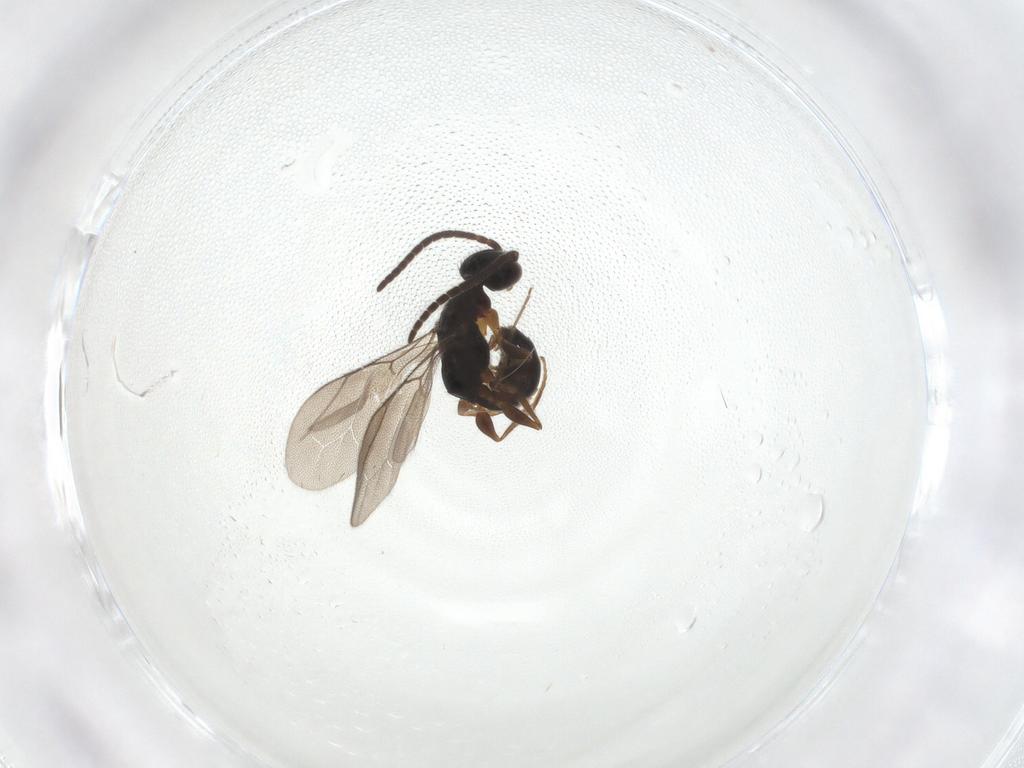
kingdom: Animalia
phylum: Arthropoda
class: Insecta
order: Hymenoptera
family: Bethylidae
